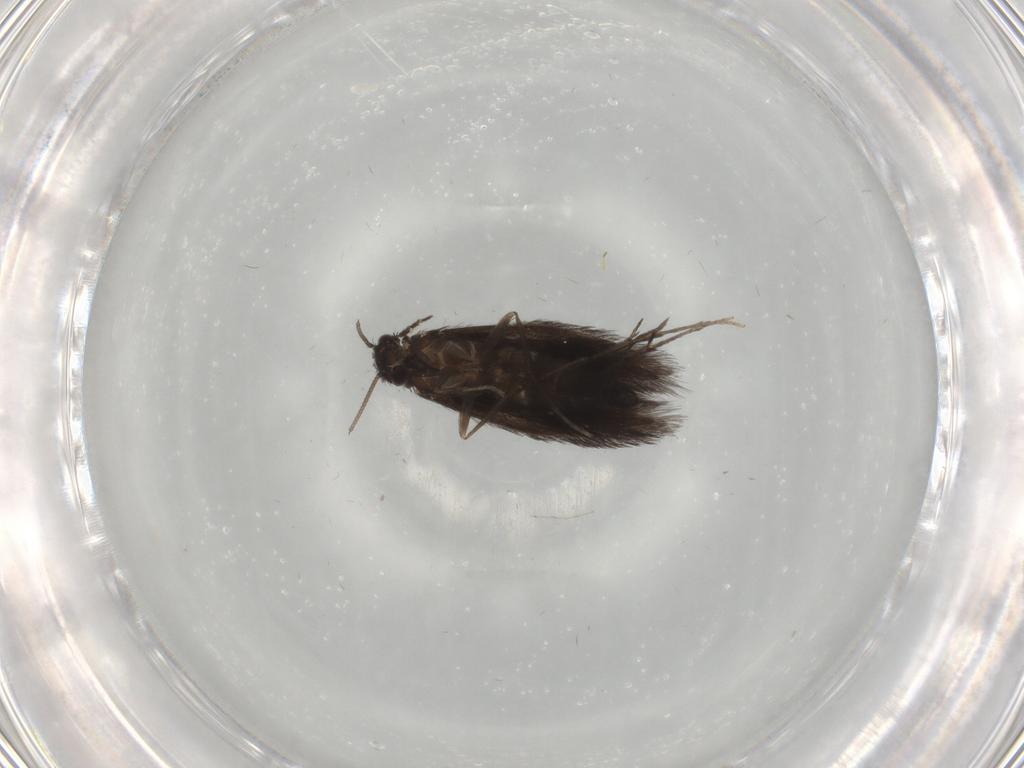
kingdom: Animalia
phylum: Arthropoda
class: Insecta
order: Trichoptera
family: Hydroptilidae
